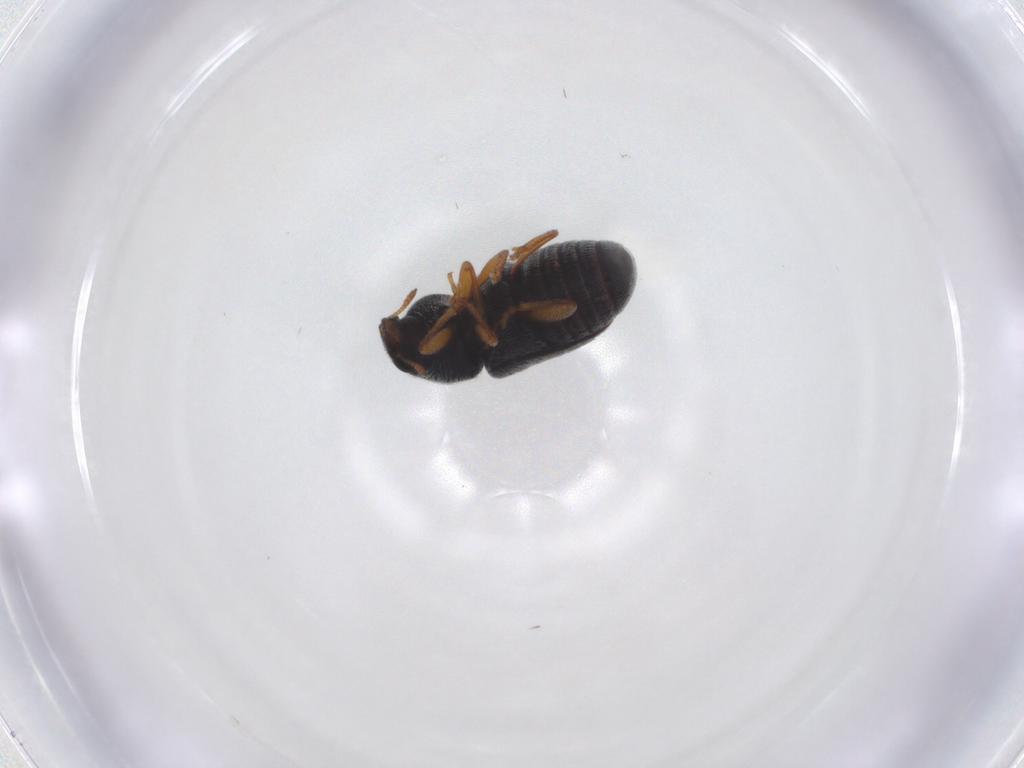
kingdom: Animalia
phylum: Arthropoda
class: Insecta
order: Coleoptera
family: Anthribidae
